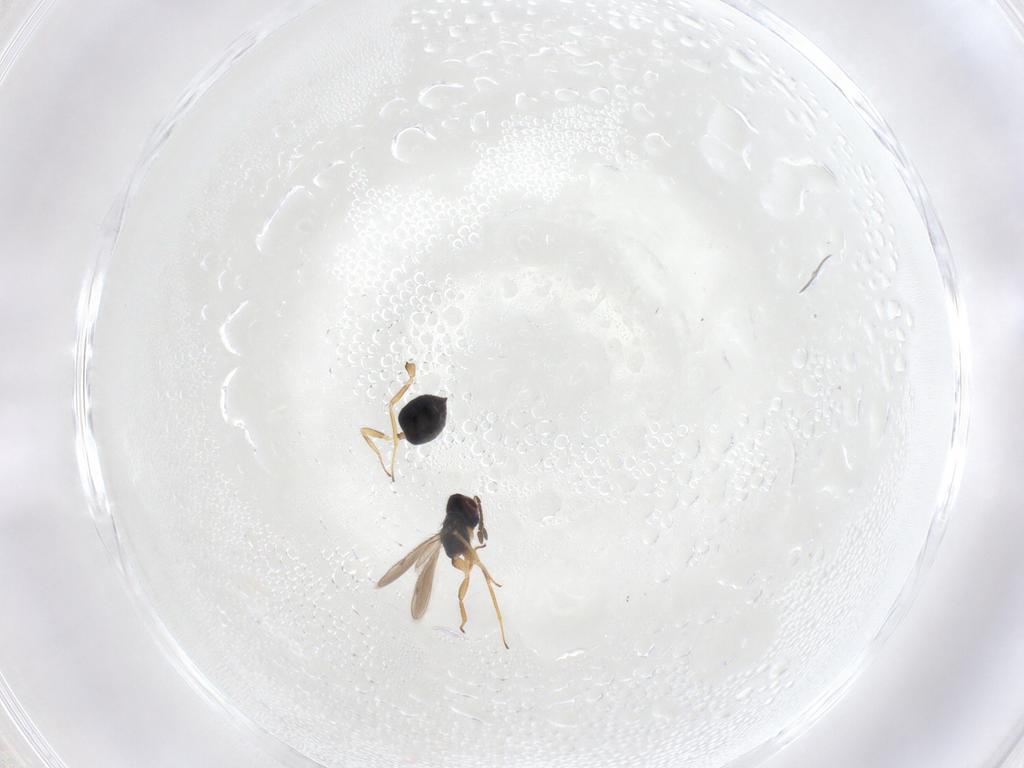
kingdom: Animalia
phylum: Arthropoda
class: Insecta
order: Hymenoptera
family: Tetracampidae
